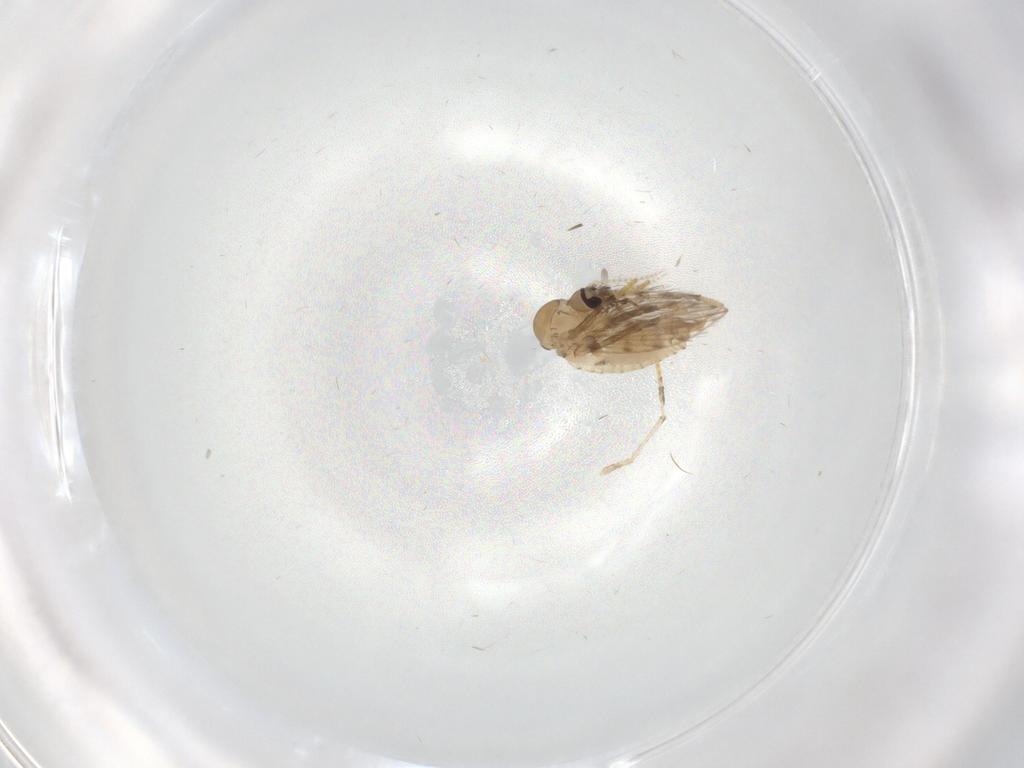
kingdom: Animalia
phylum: Arthropoda
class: Insecta
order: Diptera
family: Psychodidae
